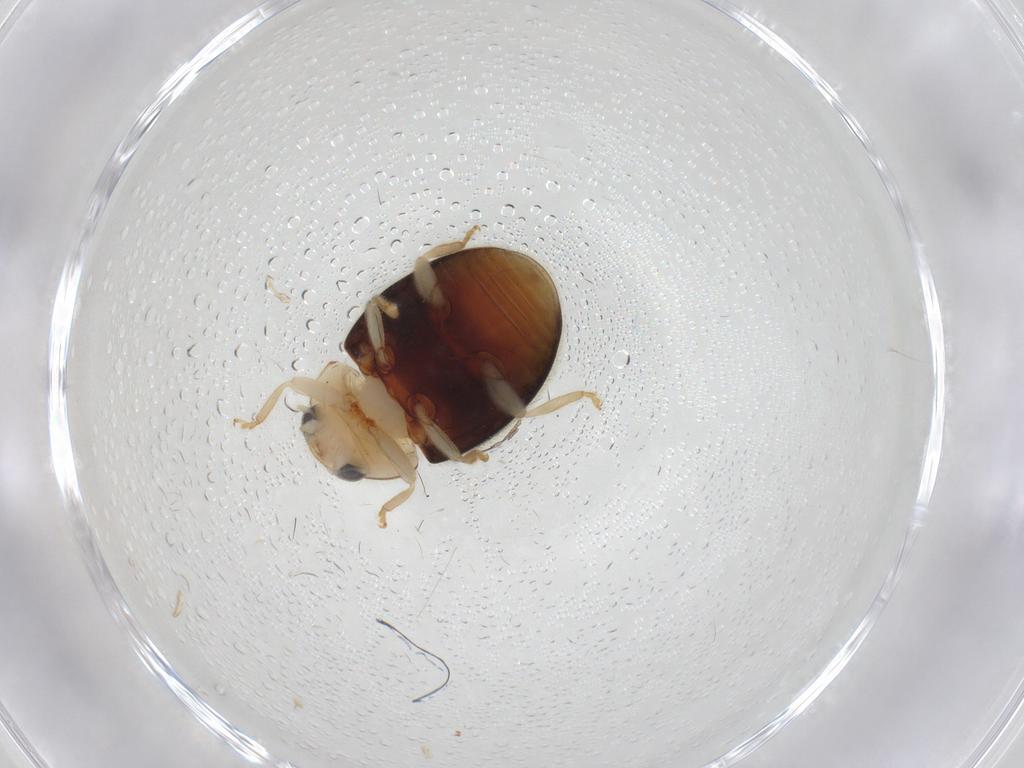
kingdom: Animalia
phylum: Arthropoda
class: Insecta
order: Coleoptera
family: Coccinellidae
